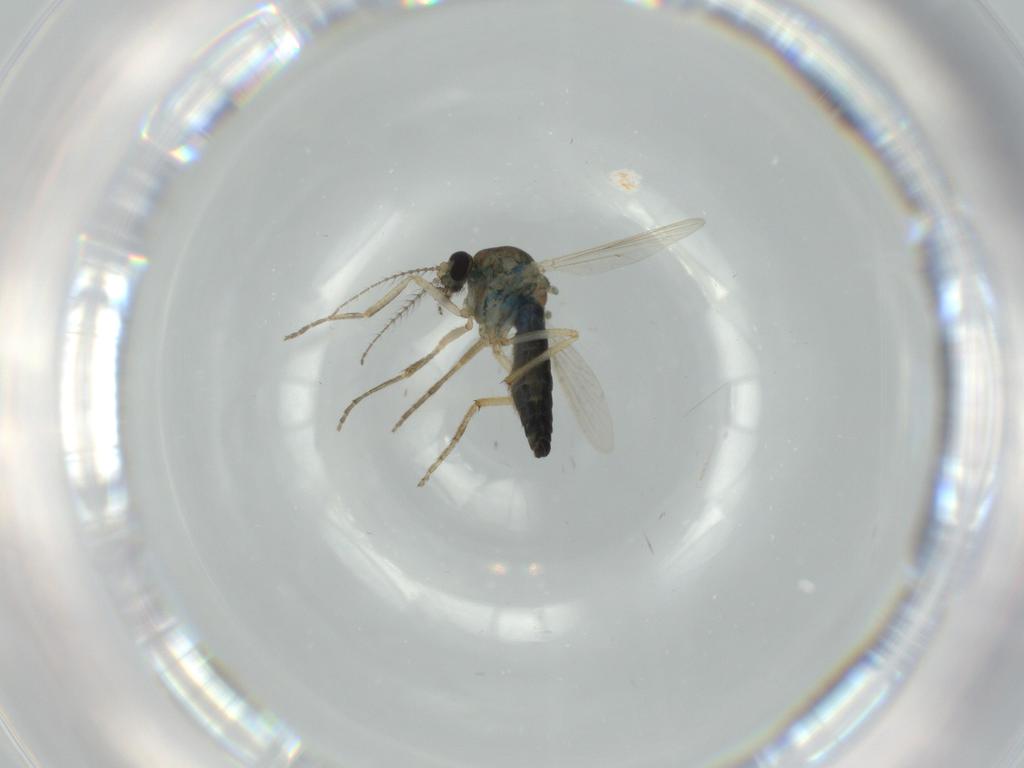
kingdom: Animalia
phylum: Arthropoda
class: Insecta
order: Diptera
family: Ceratopogonidae
